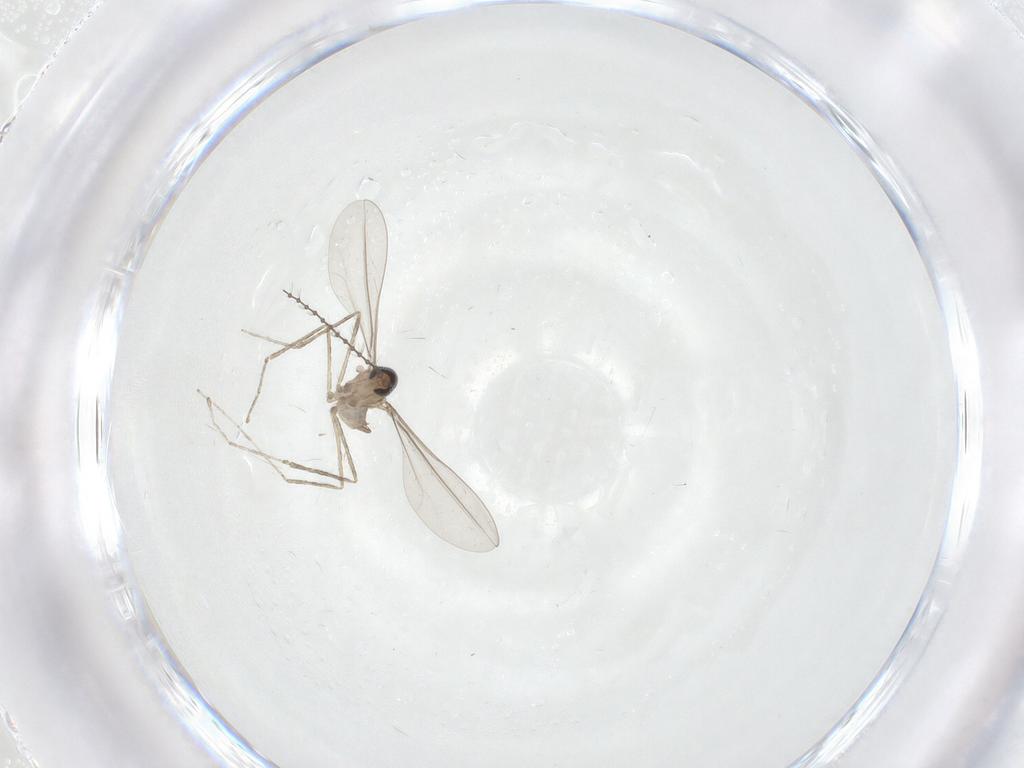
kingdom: Animalia
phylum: Arthropoda
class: Insecta
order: Diptera
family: Cecidomyiidae
